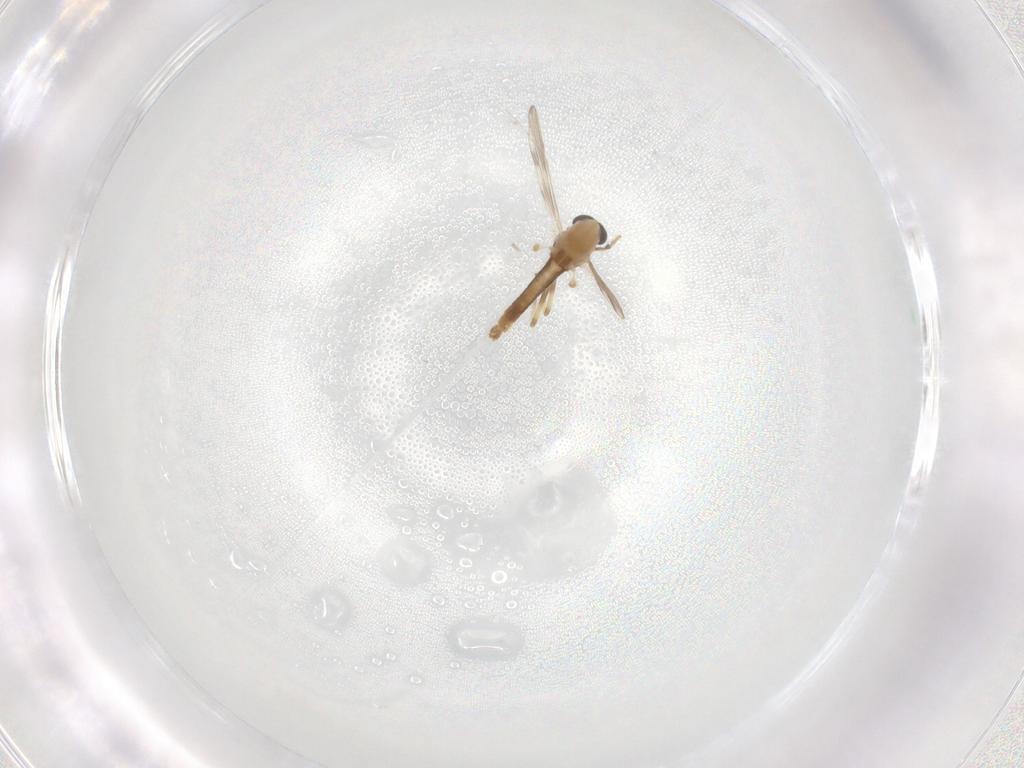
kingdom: Animalia
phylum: Arthropoda
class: Insecta
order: Diptera
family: Chironomidae
